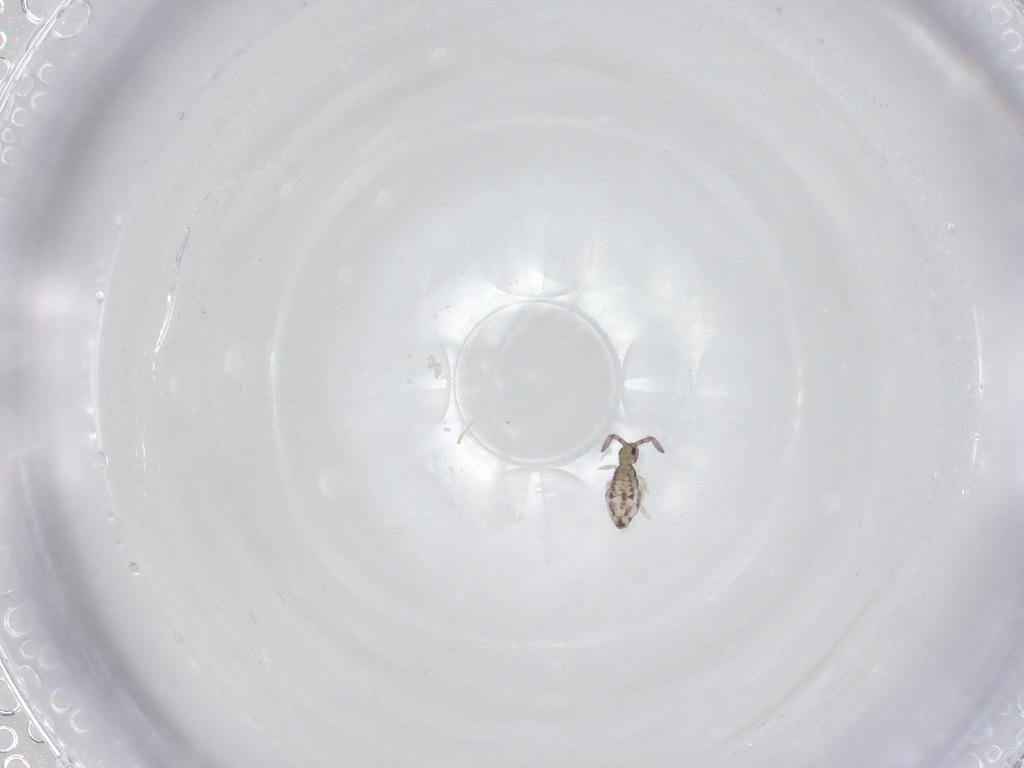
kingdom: Animalia
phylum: Arthropoda
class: Collembola
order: Entomobryomorpha
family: Entomobryidae
